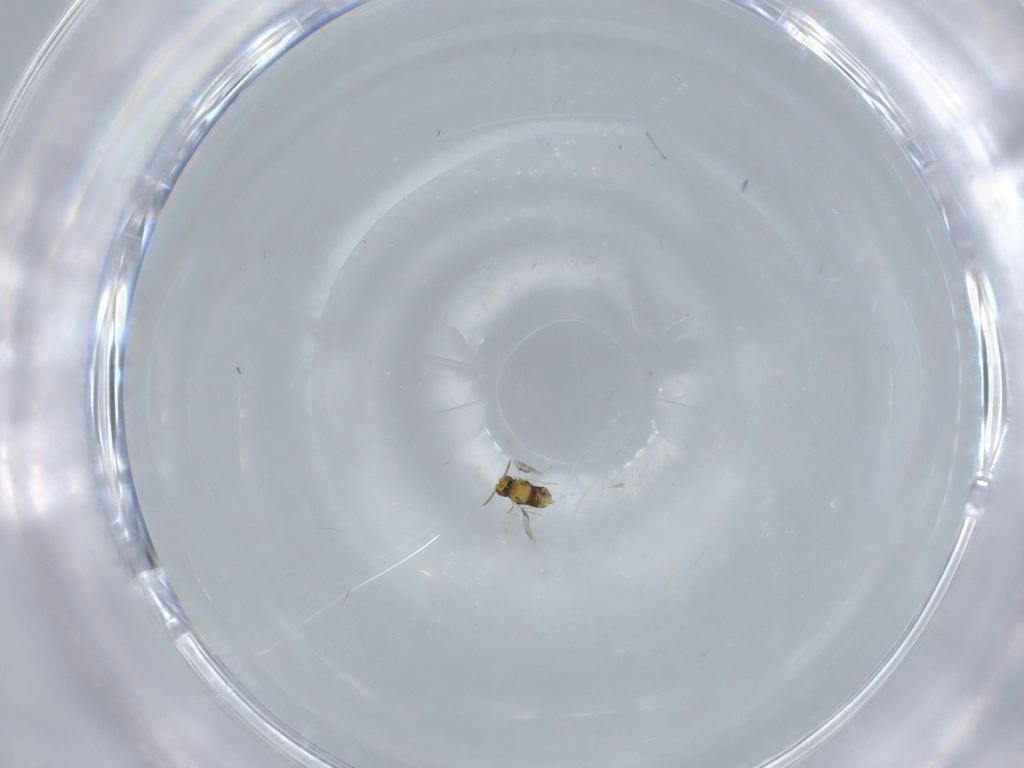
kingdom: Animalia
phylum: Arthropoda
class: Insecta
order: Hymenoptera
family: Aphelinidae
